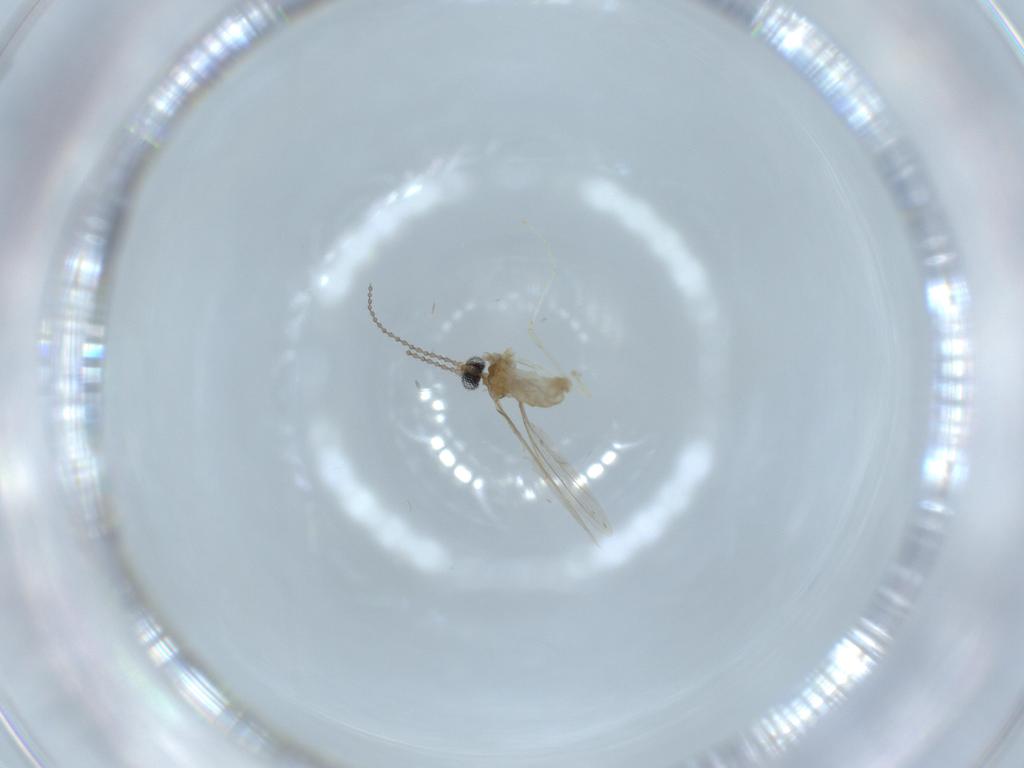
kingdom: Animalia
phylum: Arthropoda
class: Insecta
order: Diptera
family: Cecidomyiidae
